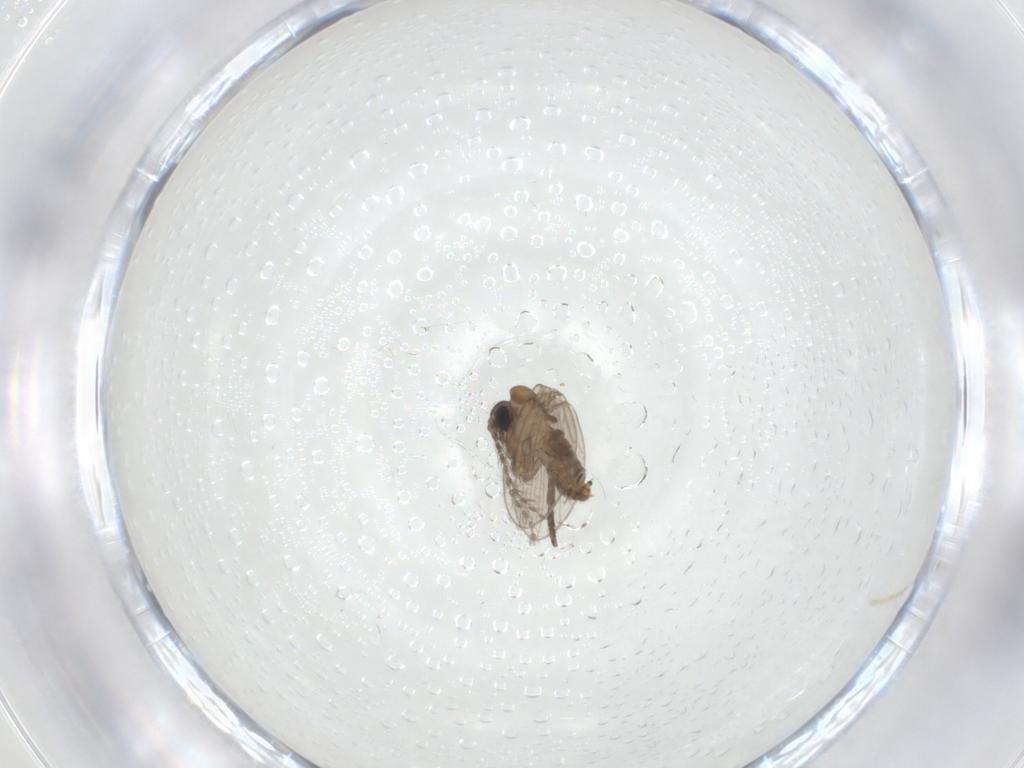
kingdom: Animalia
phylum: Arthropoda
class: Insecta
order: Diptera
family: Psychodidae
